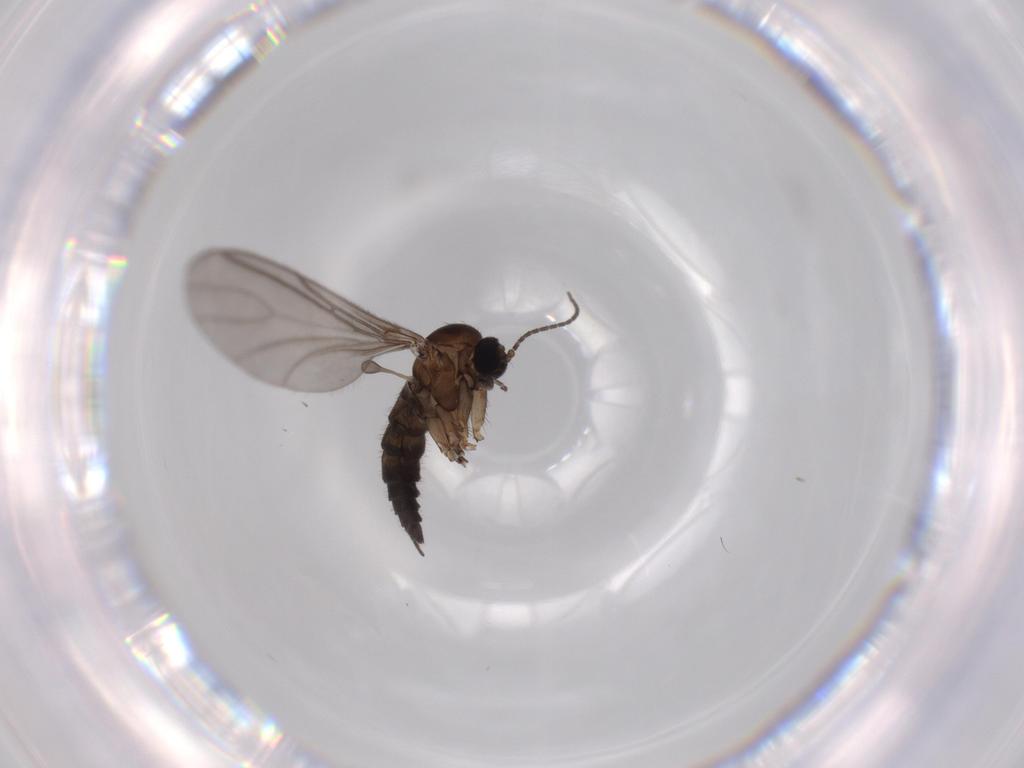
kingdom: Animalia
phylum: Arthropoda
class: Insecta
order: Diptera
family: Sciaridae
